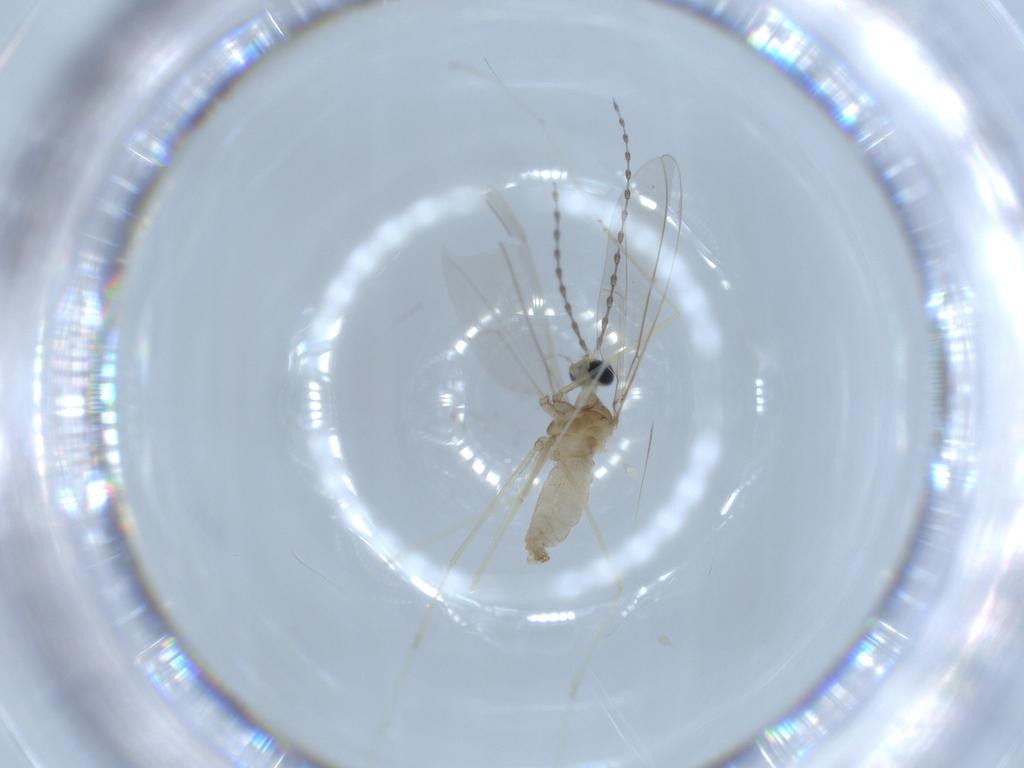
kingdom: Animalia
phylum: Arthropoda
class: Insecta
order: Diptera
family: Cecidomyiidae
